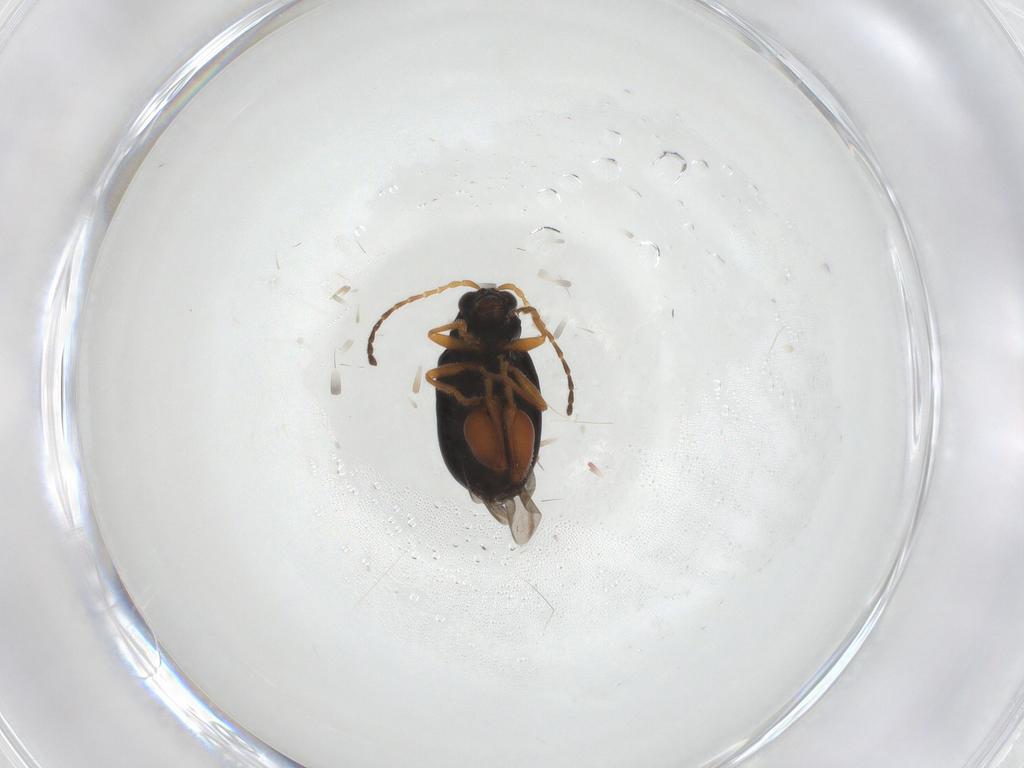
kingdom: Animalia
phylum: Arthropoda
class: Insecta
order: Coleoptera
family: Chrysomelidae
